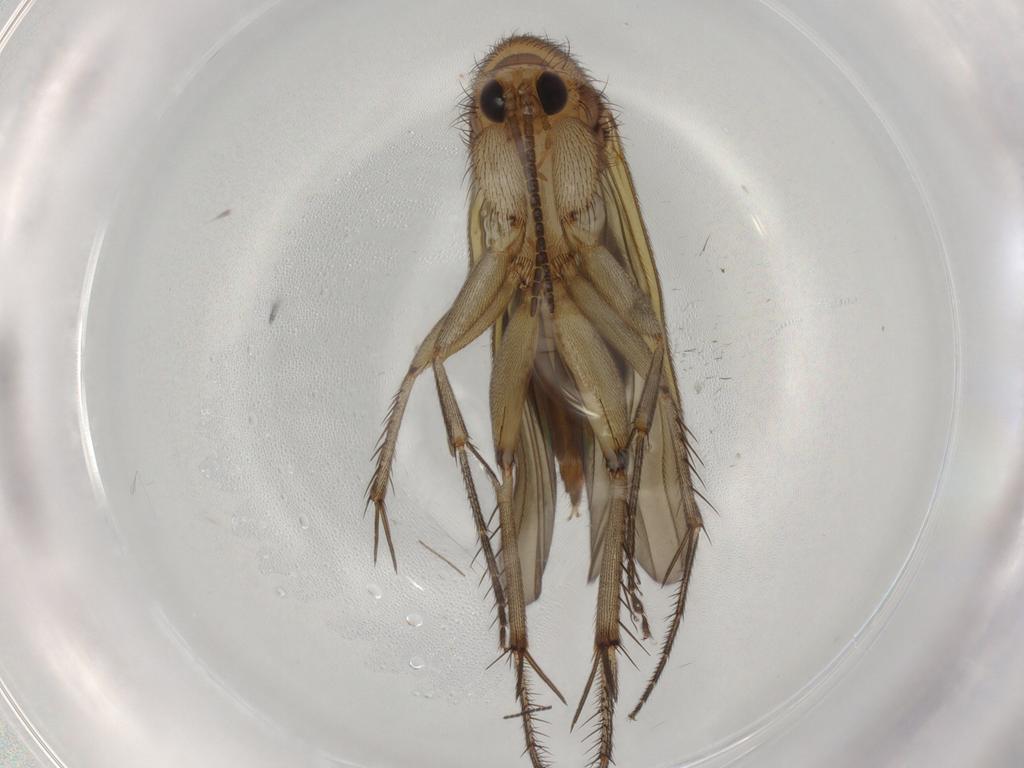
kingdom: Animalia
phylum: Arthropoda
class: Insecta
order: Diptera
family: Mycetophilidae
